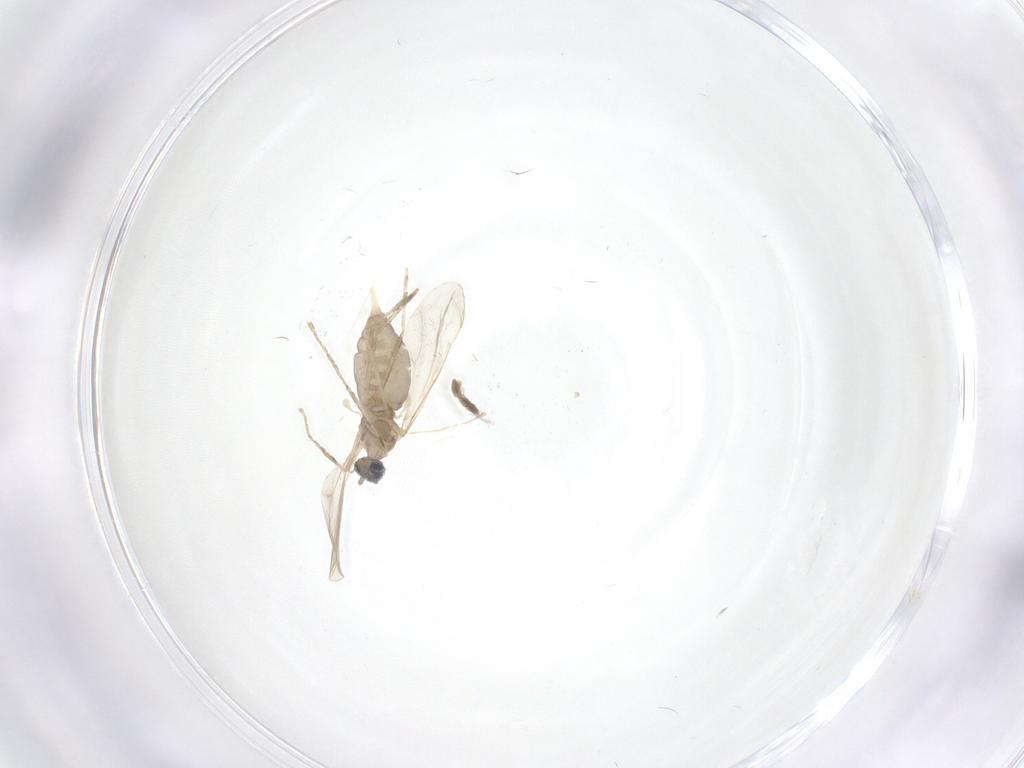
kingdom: Animalia
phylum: Arthropoda
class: Insecta
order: Diptera
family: Cecidomyiidae
